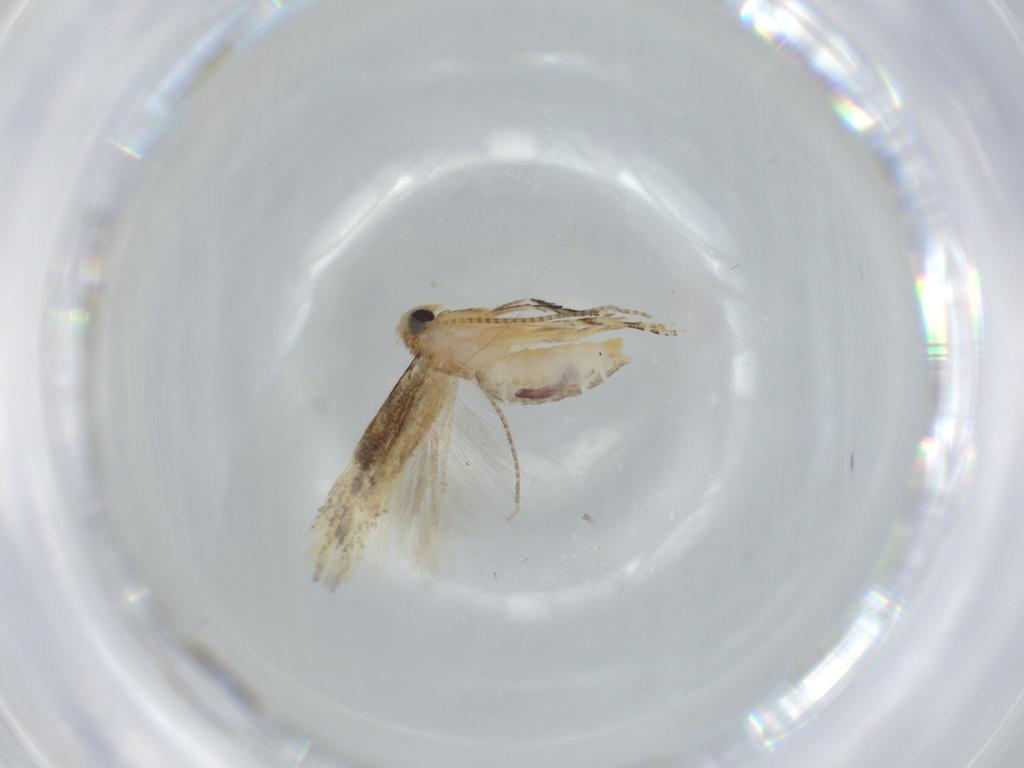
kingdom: Animalia
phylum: Arthropoda
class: Insecta
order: Lepidoptera
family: Bucculatricidae
